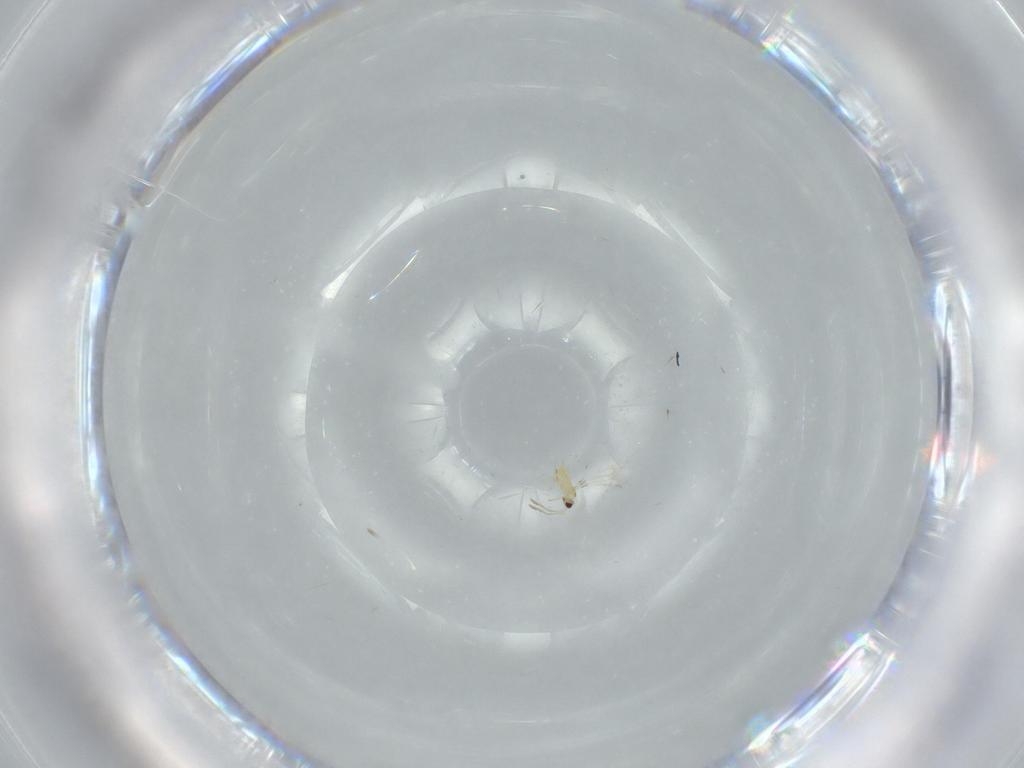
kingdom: Animalia
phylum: Arthropoda
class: Insecta
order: Hymenoptera
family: Mymaridae
